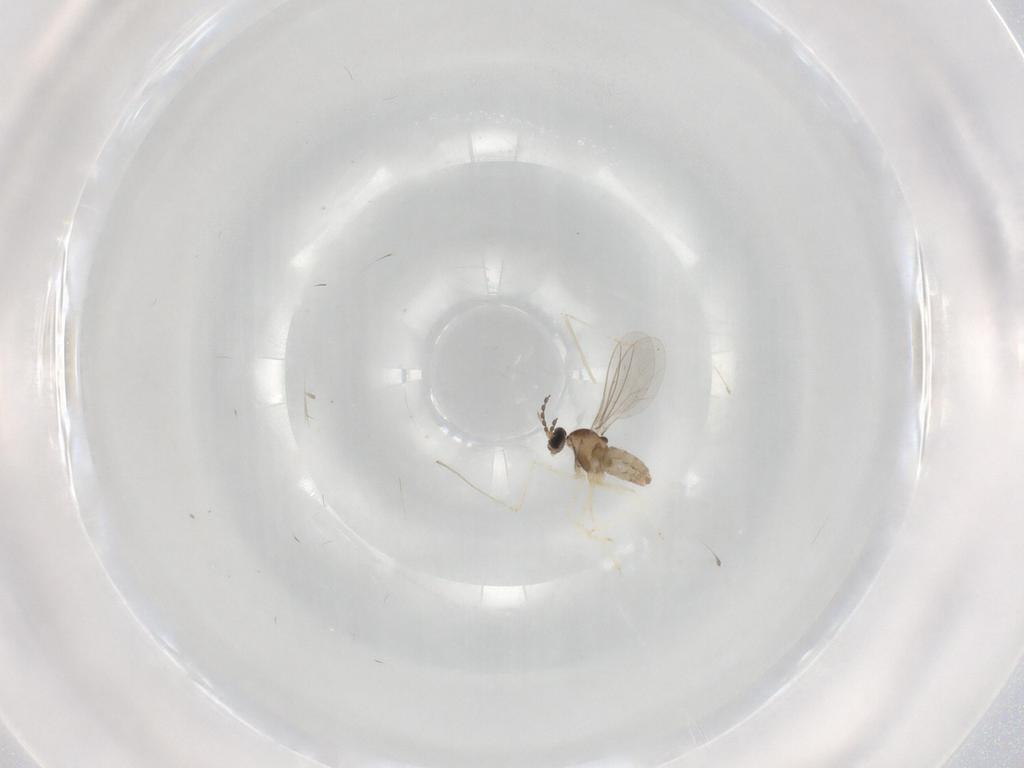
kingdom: Animalia
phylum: Arthropoda
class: Insecta
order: Diptera
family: Cecidomyiidae
